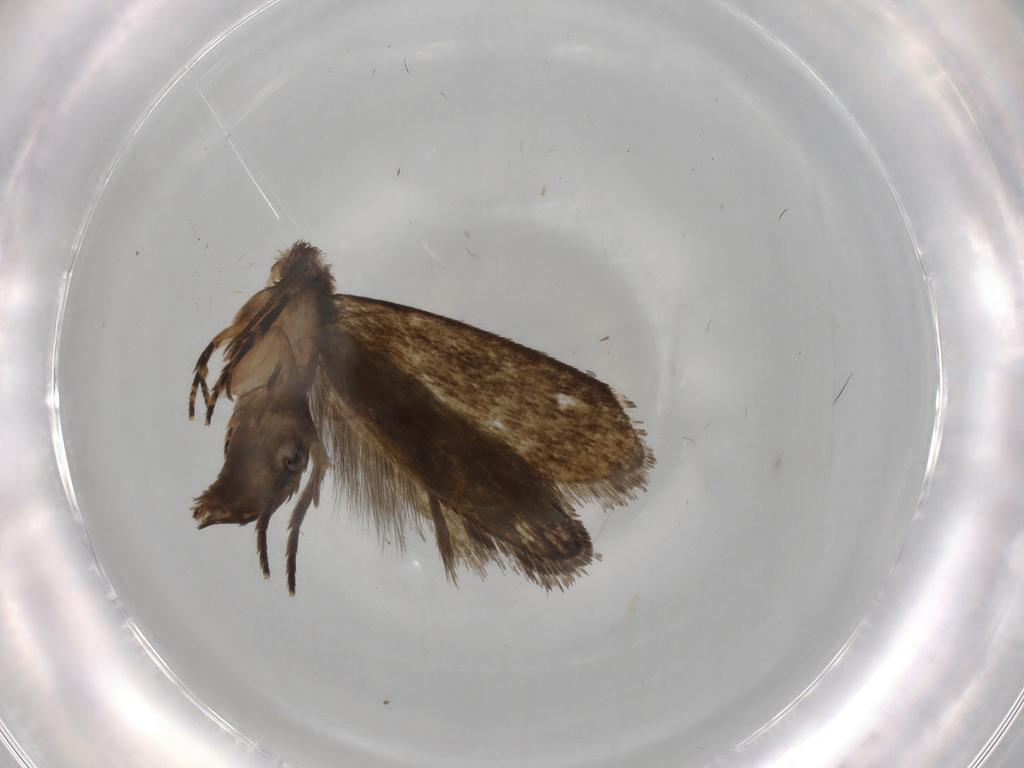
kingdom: Animalia
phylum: Arthropoda
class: Insecta
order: Lepidoptera
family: Crambidae
